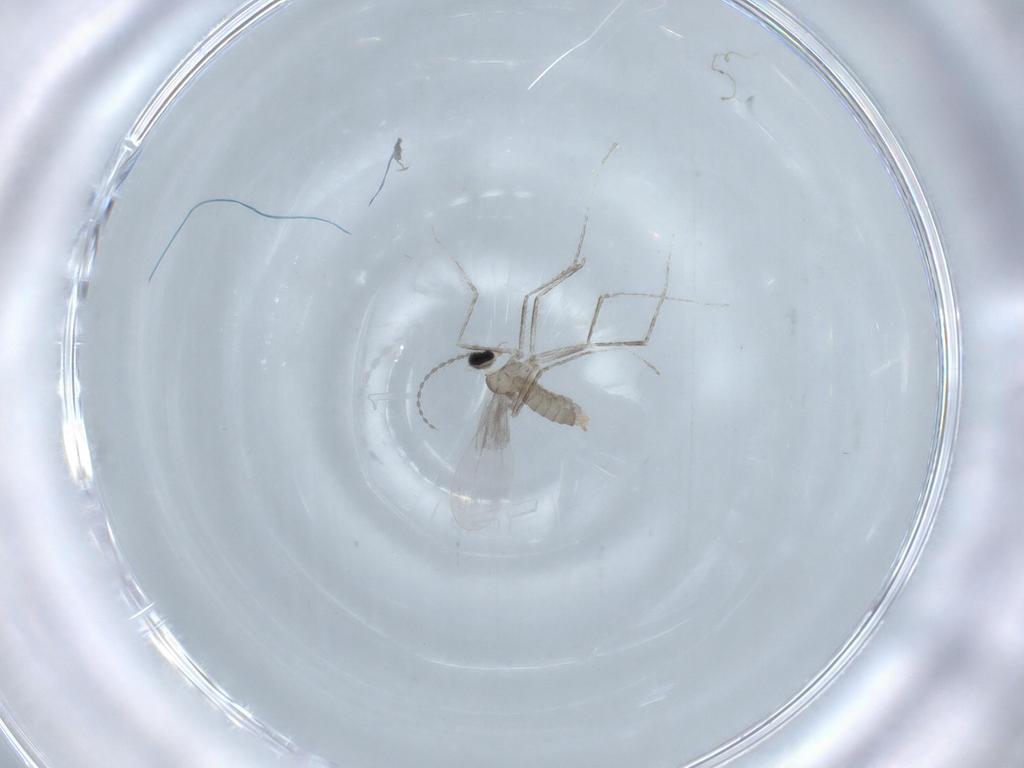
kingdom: Animalia
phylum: Arthropoda
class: Insecta
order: Diptera
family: Cecidomyiidae
